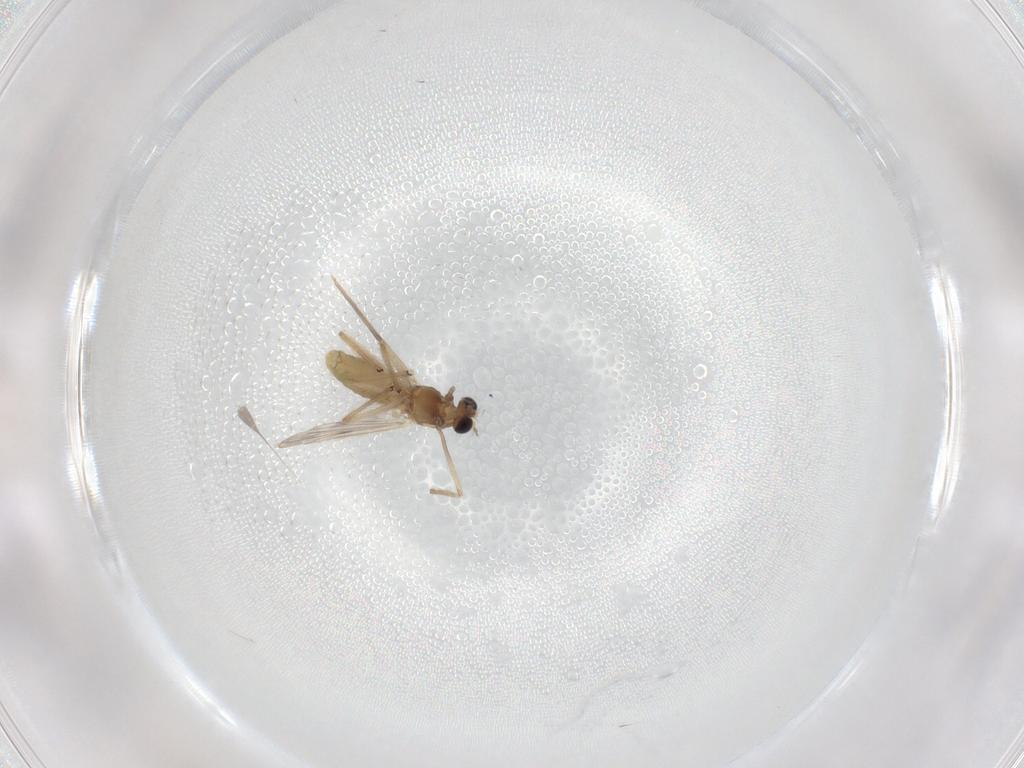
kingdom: Animalia
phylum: Arthropoda
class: Insecta
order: Diptera
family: Chironomidae
